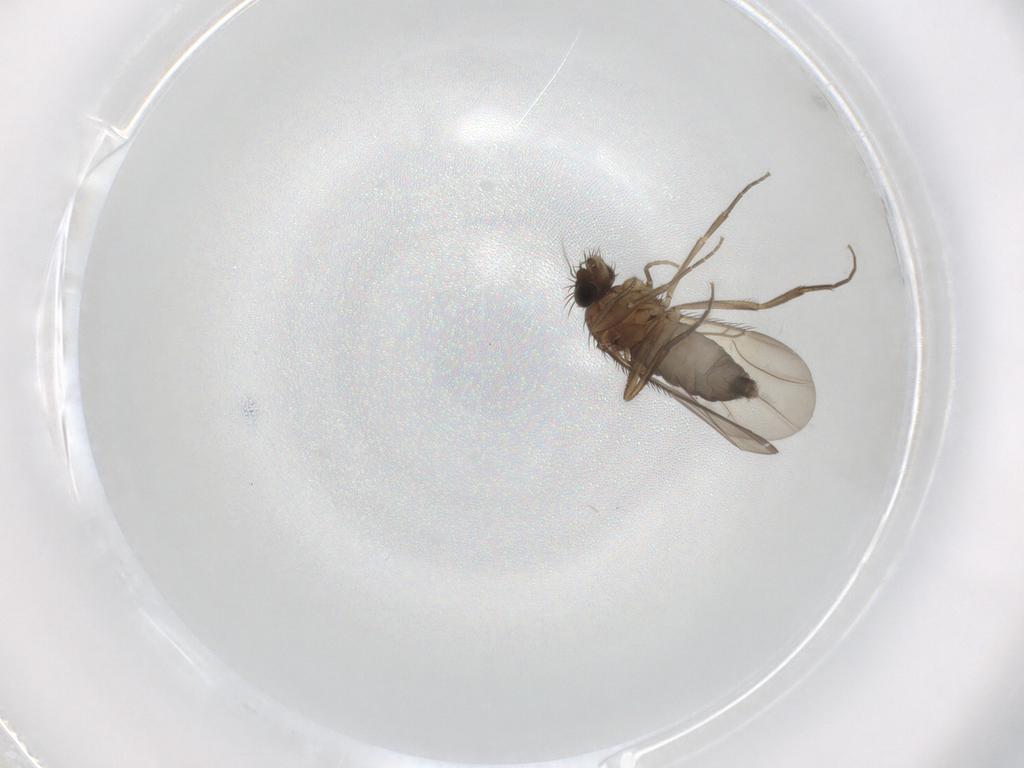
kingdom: Animalia
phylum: Arthropoda
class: Insecta
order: Diptera
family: Phoridae
